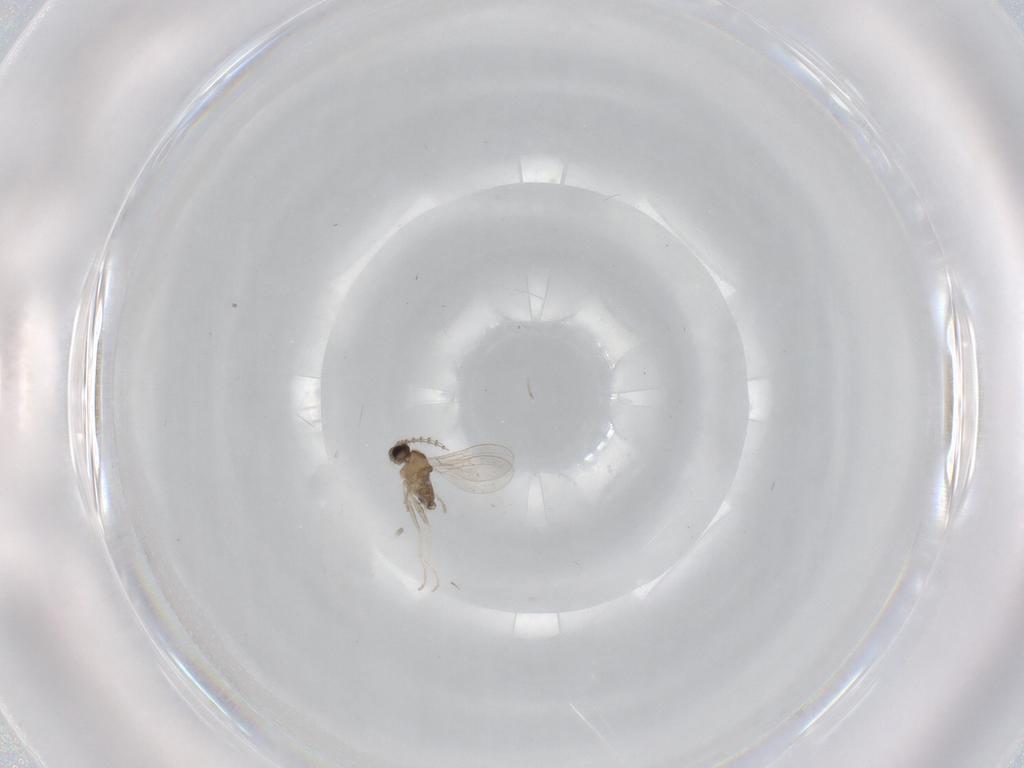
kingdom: Animalia
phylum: Arthropoda
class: Insecta
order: Diptera
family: Cecidomyiidae
